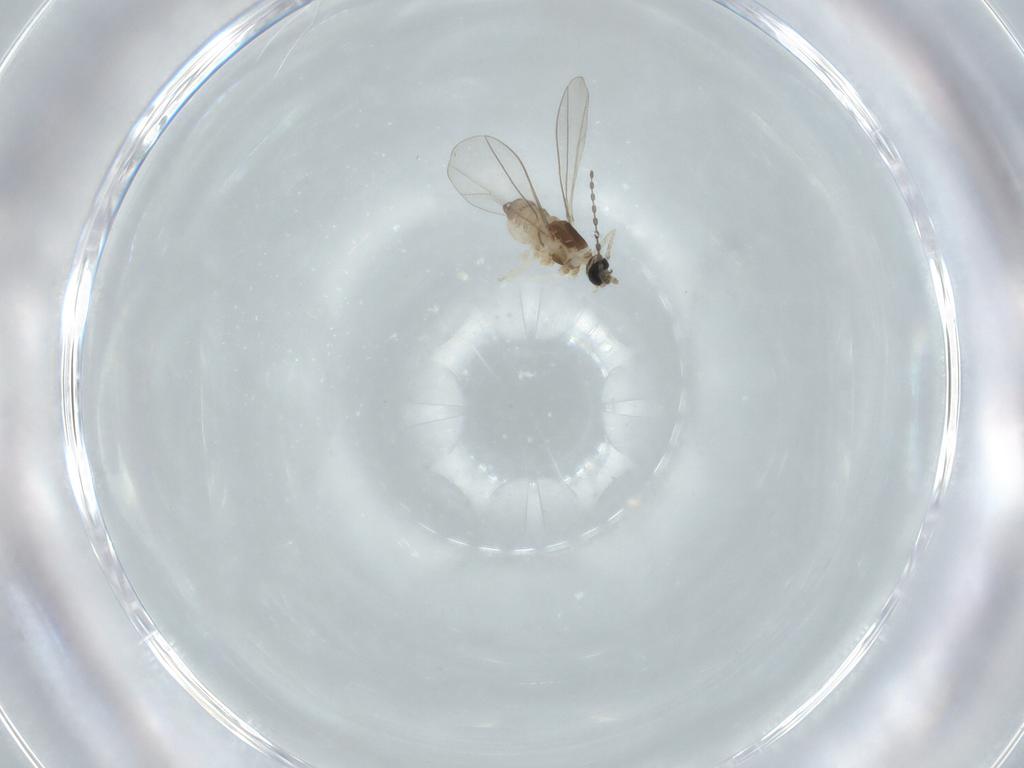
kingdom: Animalia
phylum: Arthropoda
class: Insecta
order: Diptera
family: Cecidomyiidae
